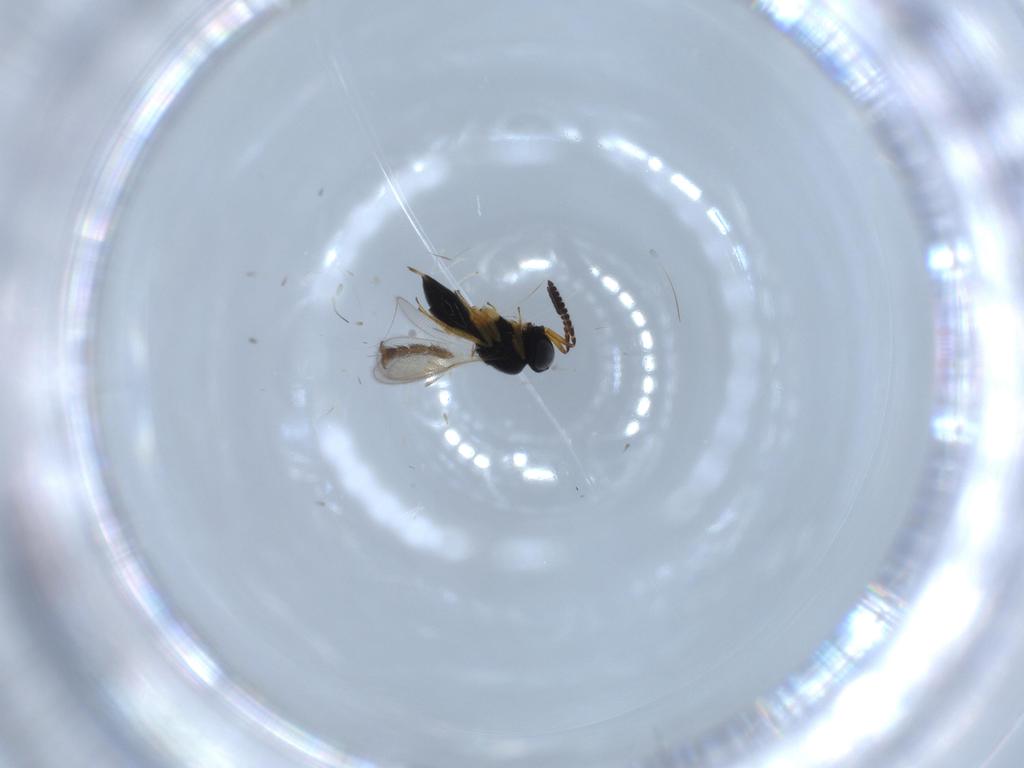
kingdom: Animalia
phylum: Arthropoda
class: Insecta
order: Hymenoptera
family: Scelionidae
